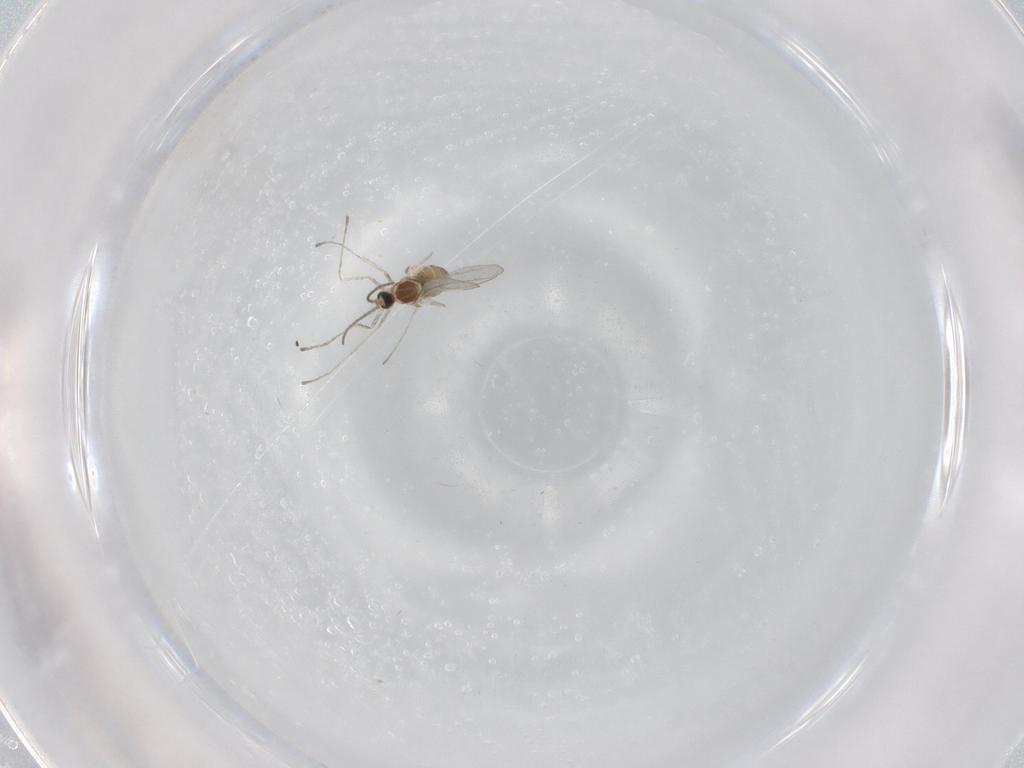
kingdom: Animalia
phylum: Arthropoda
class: Insecta
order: Diptera
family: Cecidomyiidae
